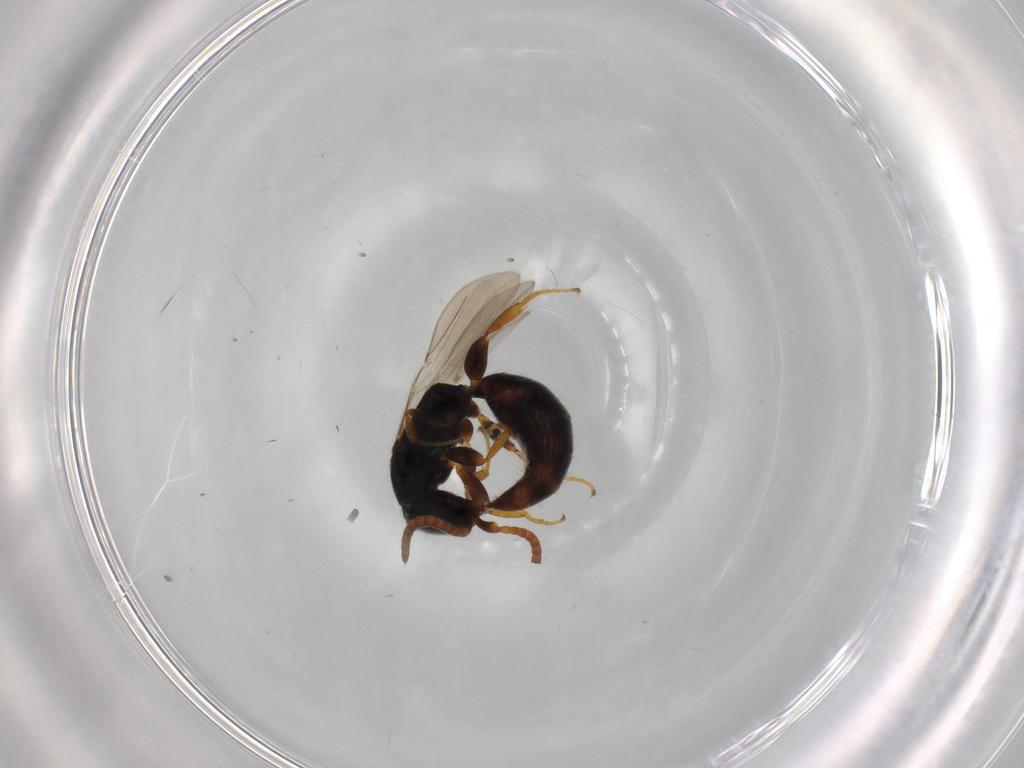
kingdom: Animalia
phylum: Arthropoda
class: Insecta
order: Hymenoptera
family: Bethylidae
